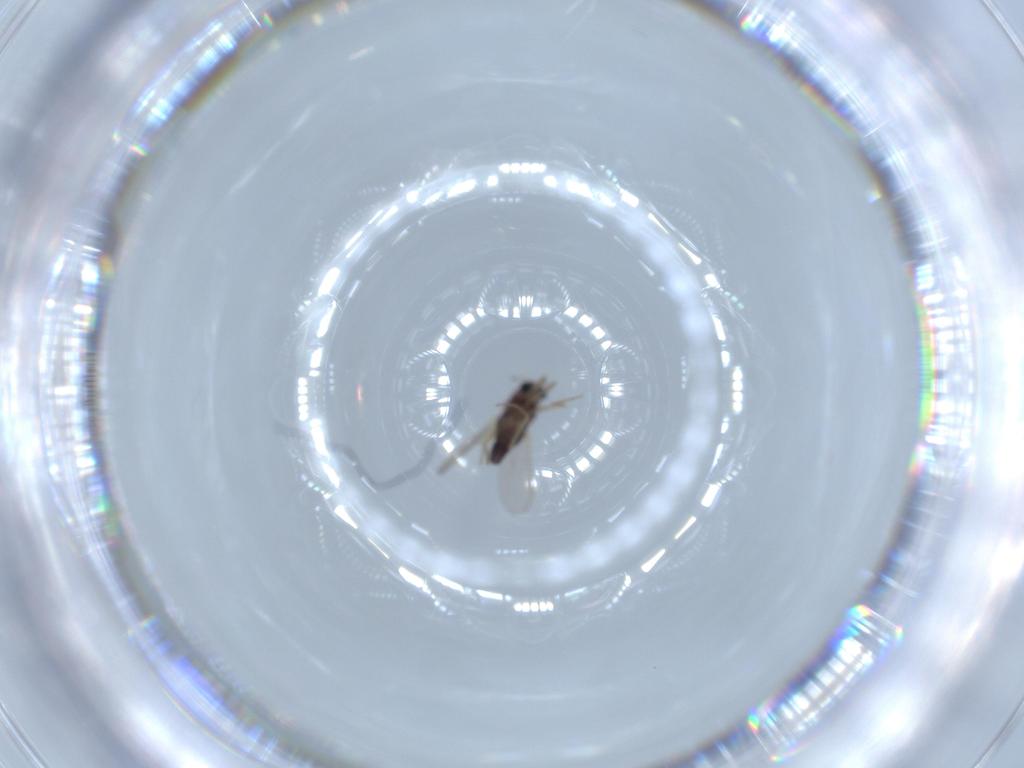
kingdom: Animalia
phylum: Arthropoda
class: Insecta
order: Diptera
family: Chironomidae
